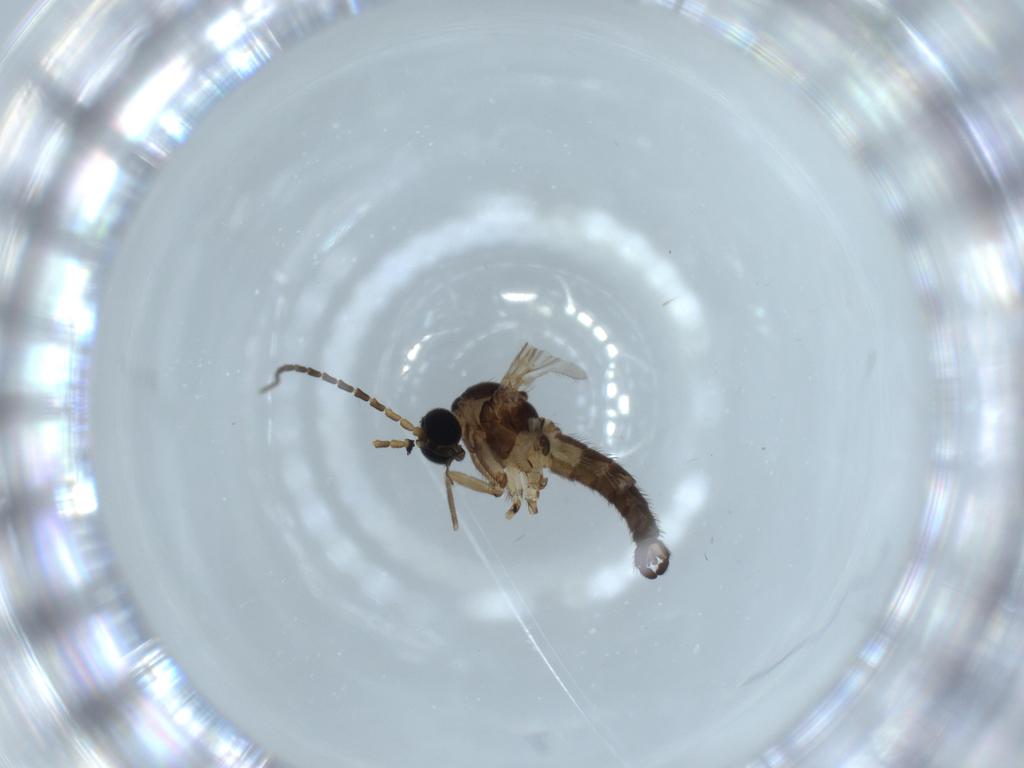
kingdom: Animalia
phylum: Arthropoda
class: Insecta
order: Diptera
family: Sciaridae
